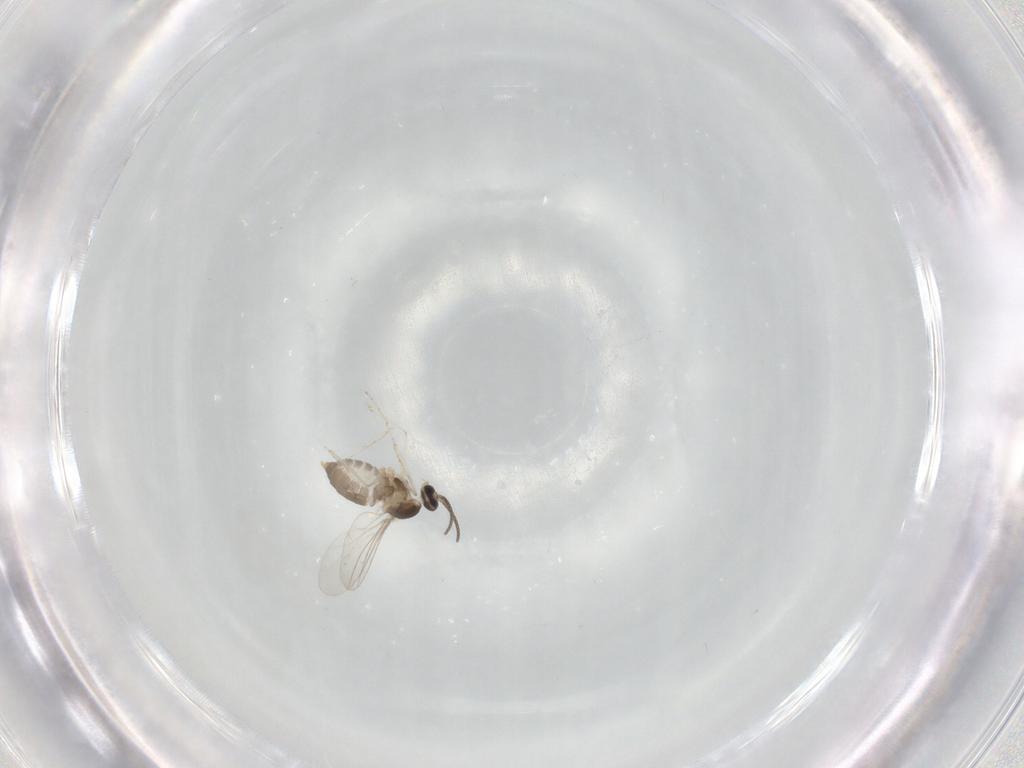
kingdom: Animalia
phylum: Arthropoda
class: Insecta
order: Diptera
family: Cecidomyiidae
